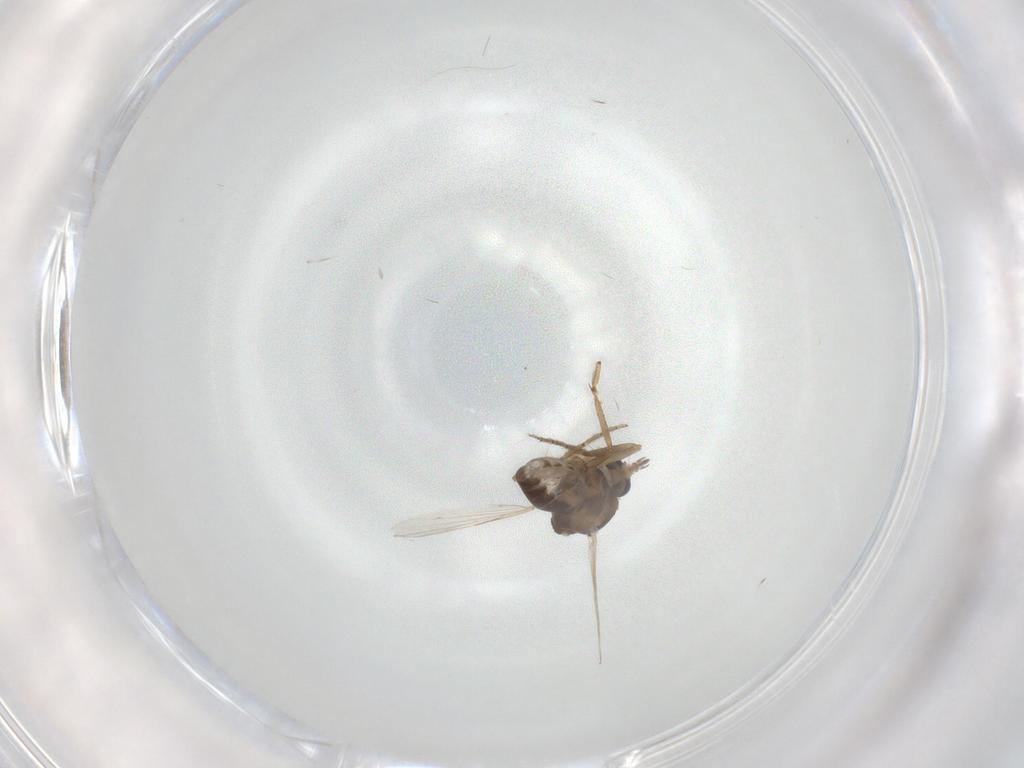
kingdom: Animalia
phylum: Arthropoda
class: Insecta
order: Diptera
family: Ceratopogonidae
